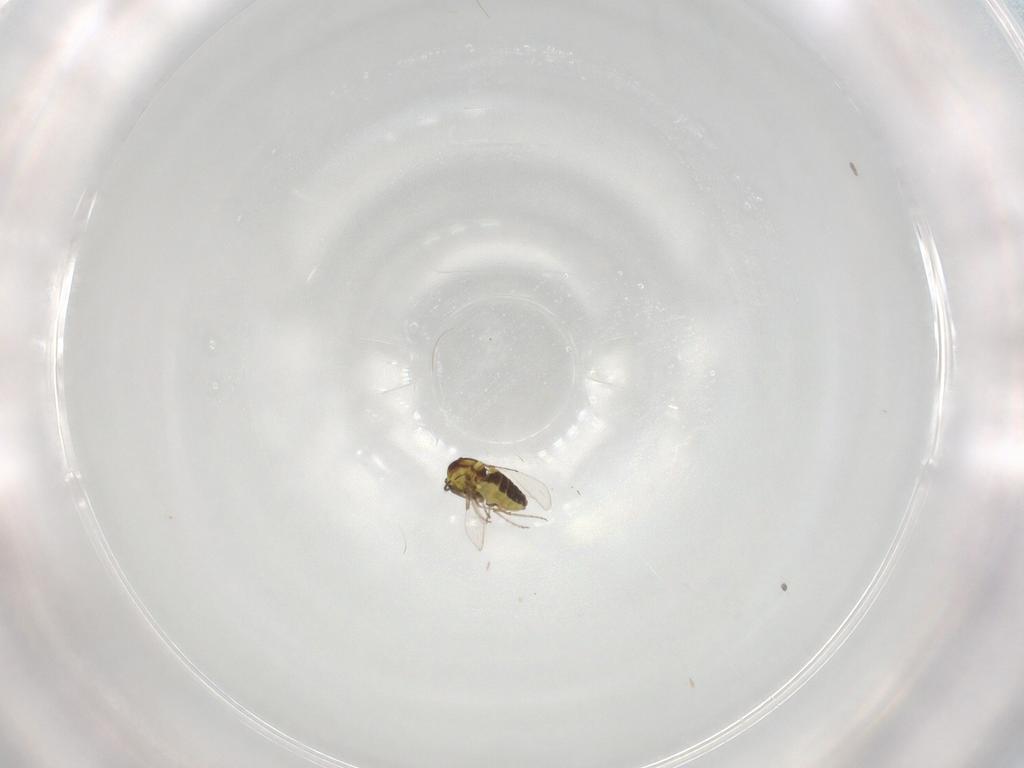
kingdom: Animalia
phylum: Arthropoda
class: Insecta
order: Diptera
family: Ceratopogonidae
